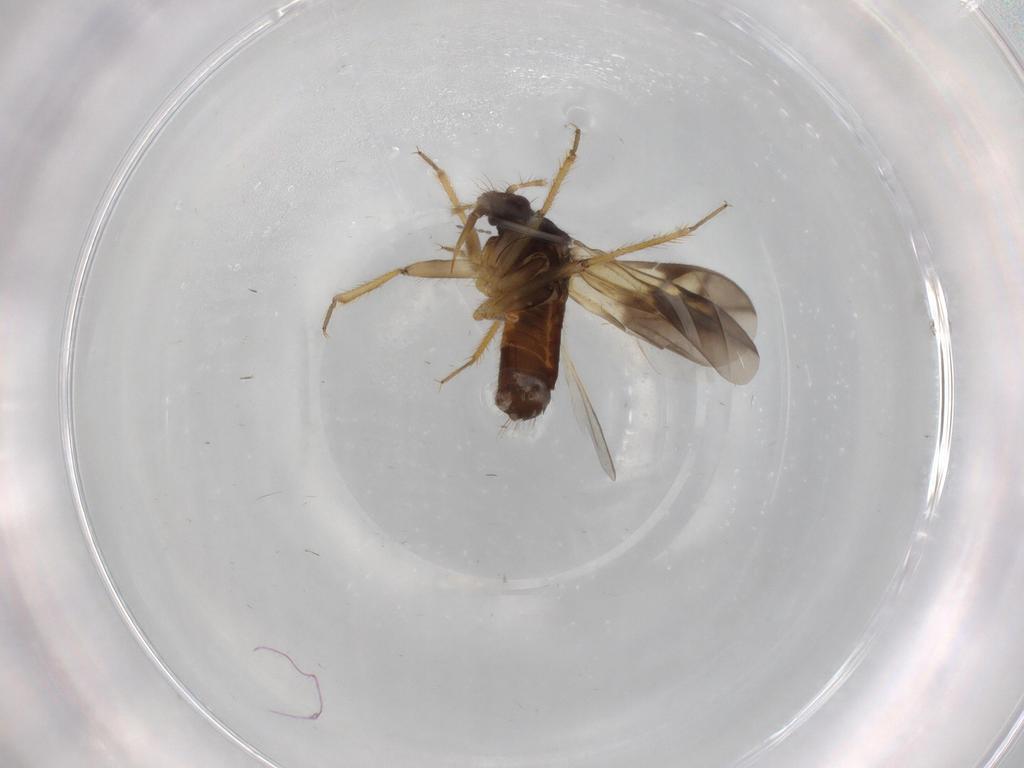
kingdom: Animalia
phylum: Arthropoda
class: Insecta
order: Hemiptera
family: Ceratocombidae
